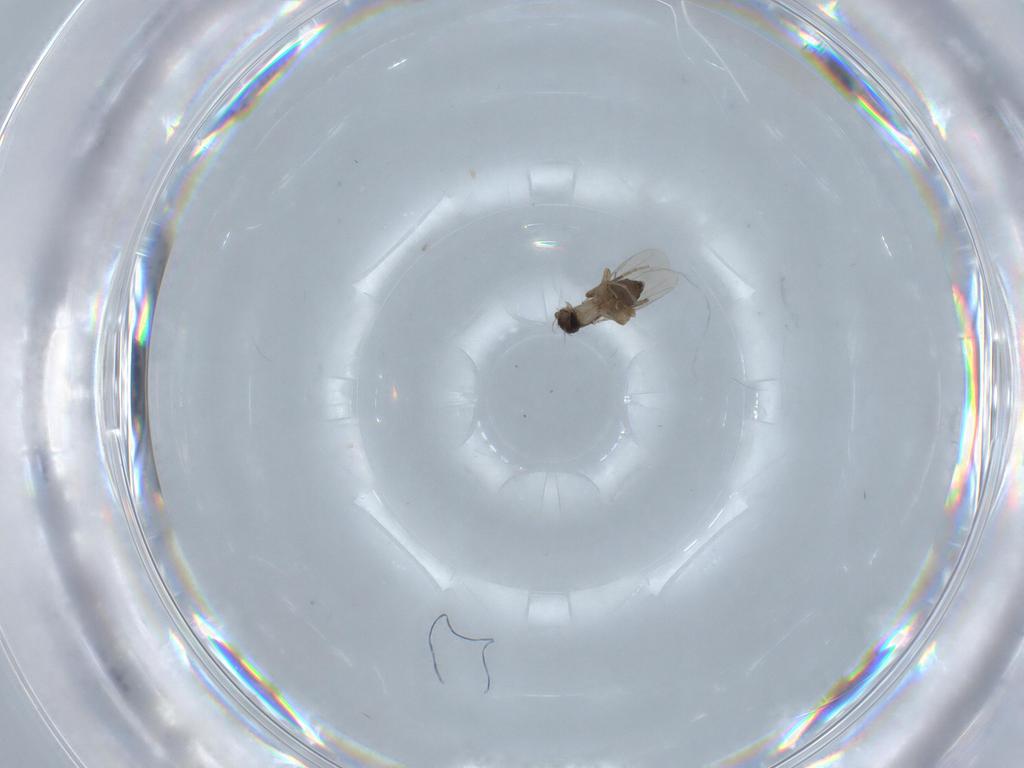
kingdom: Animalia
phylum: Arthropoda
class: Insecta
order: Diptera
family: Phoridae
